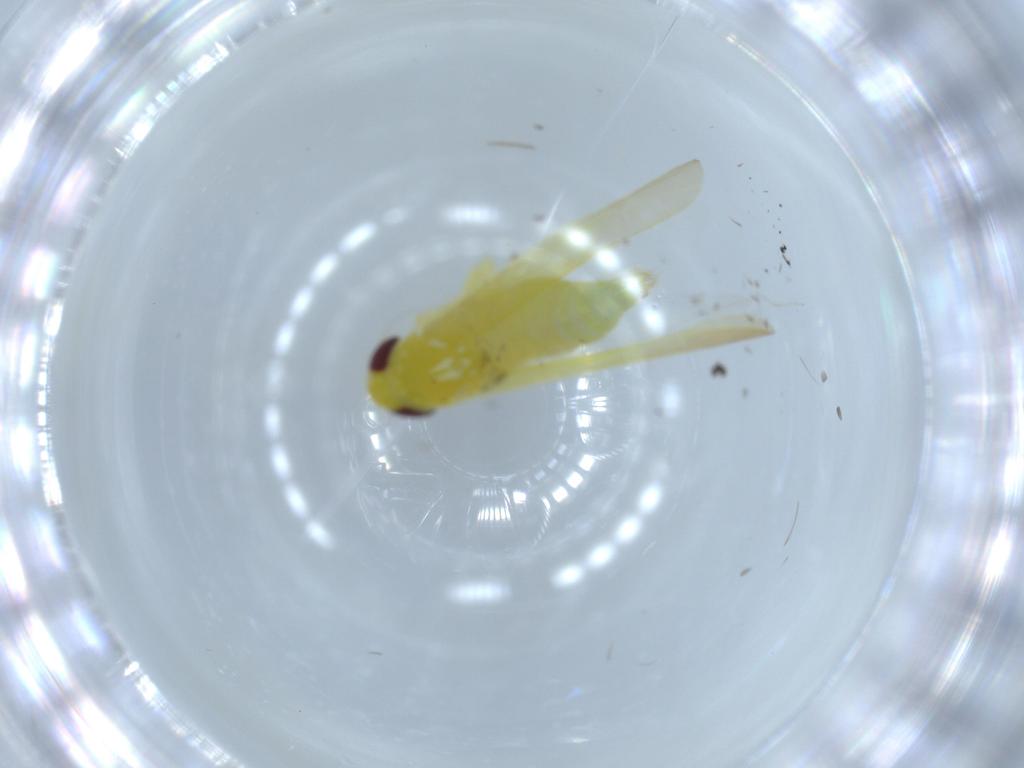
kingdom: Animalia
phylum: Arthropoda
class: Insecta
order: Hemiptera
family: Cicadellidae
